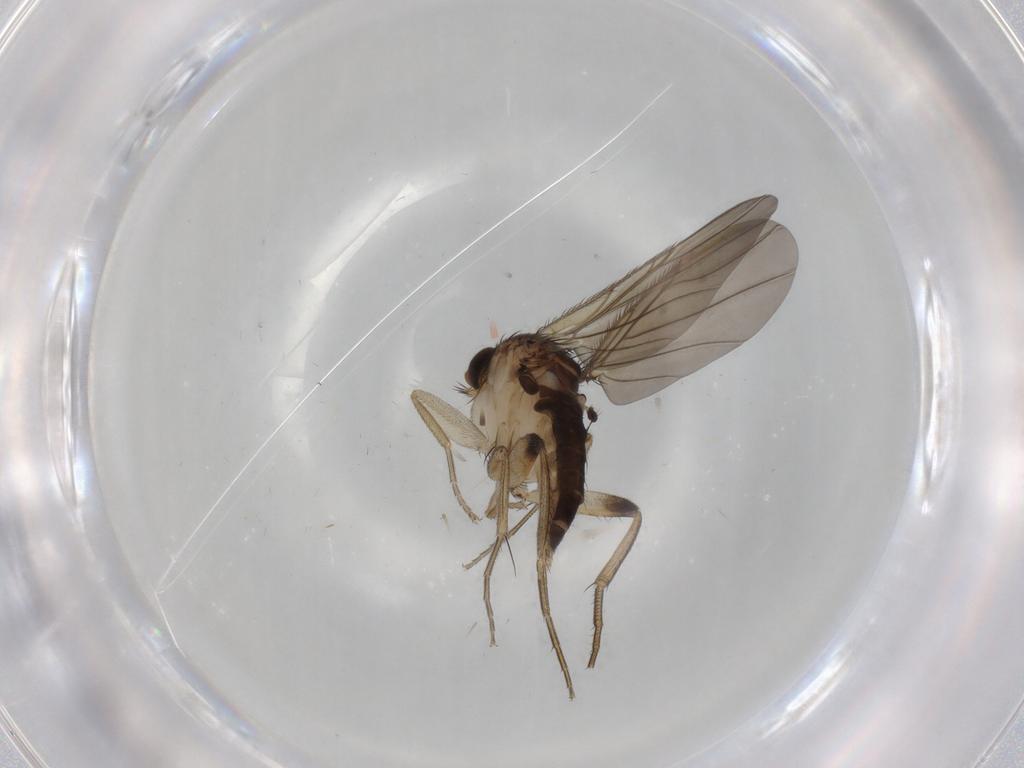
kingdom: Animalia
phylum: Arthropoda
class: Insecta
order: Diptera
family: Phoridae
